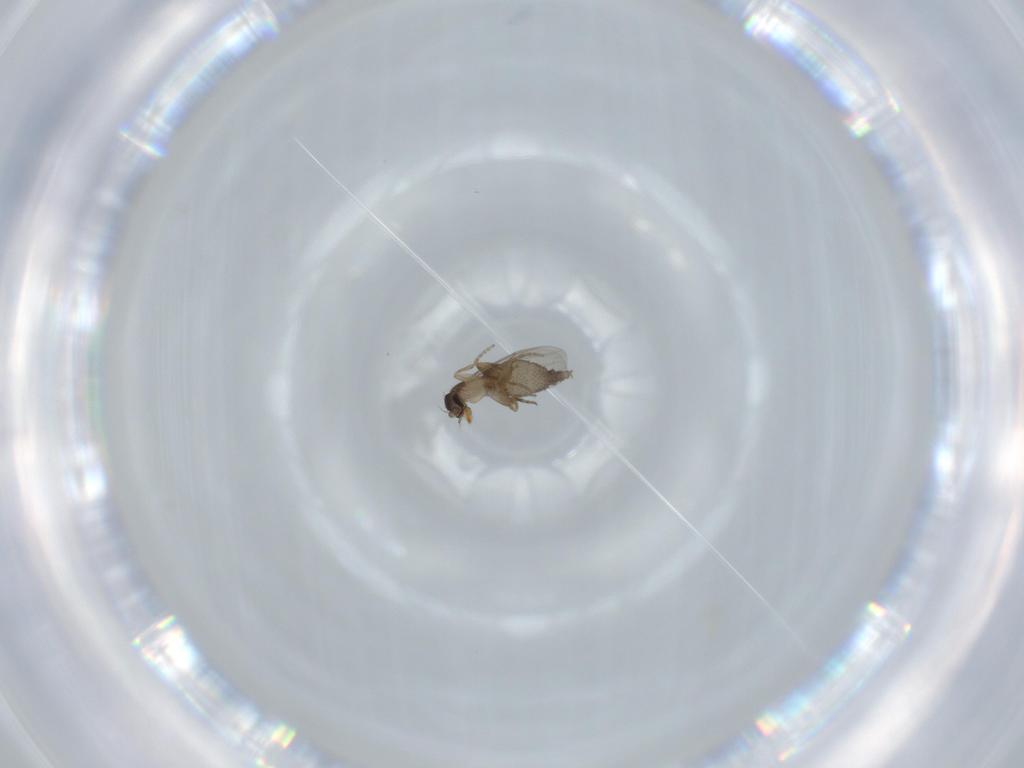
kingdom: Animalia
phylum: Arthropoda
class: Insecta
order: Diptera
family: Phoridae
